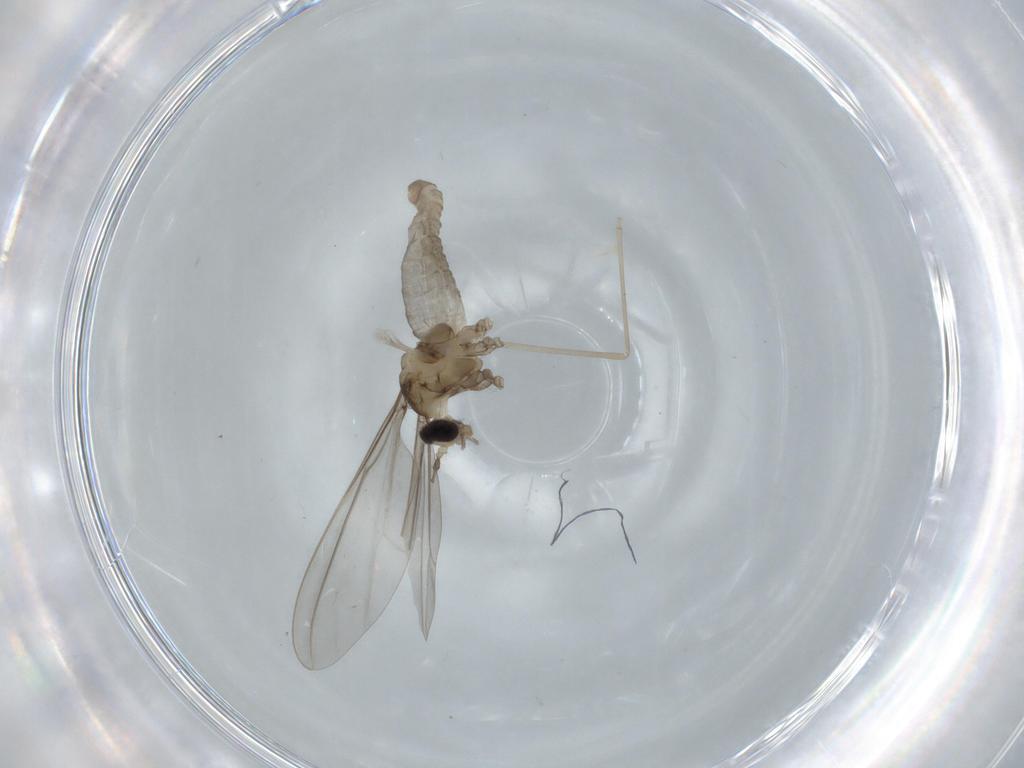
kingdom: Animalia
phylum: Arthropoda
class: Insecta
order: Diptera
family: Cecidomyiidae
